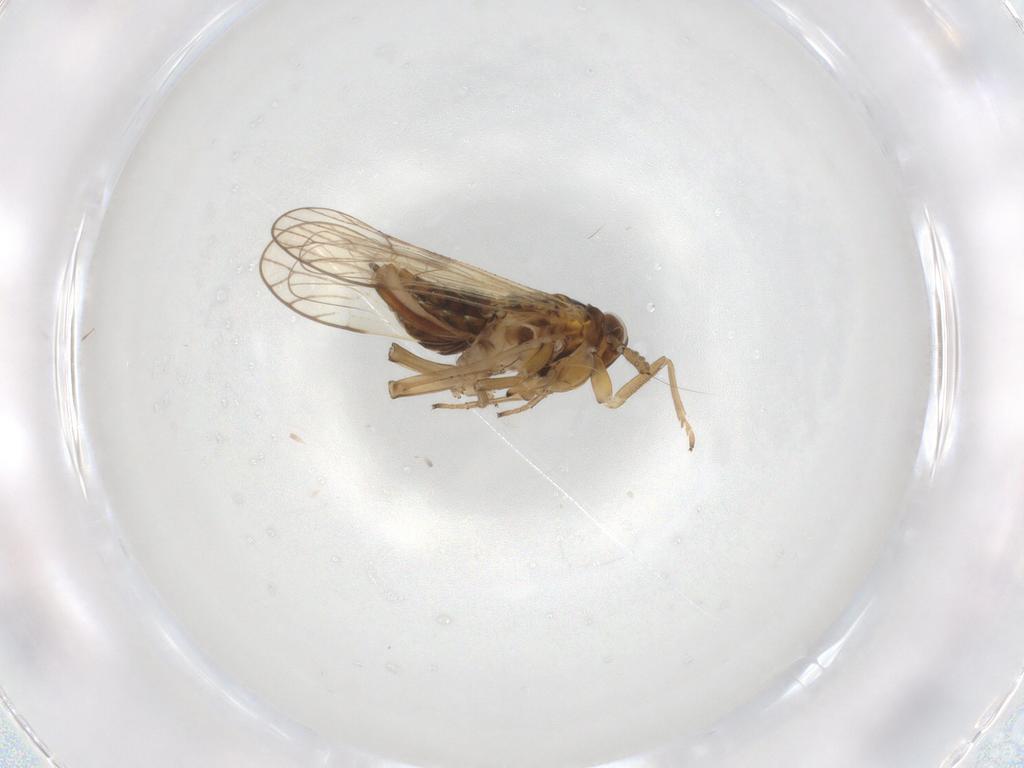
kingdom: Animalia
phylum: Arthropoda
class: Insecta
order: Hemiptera
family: Delphacidae
